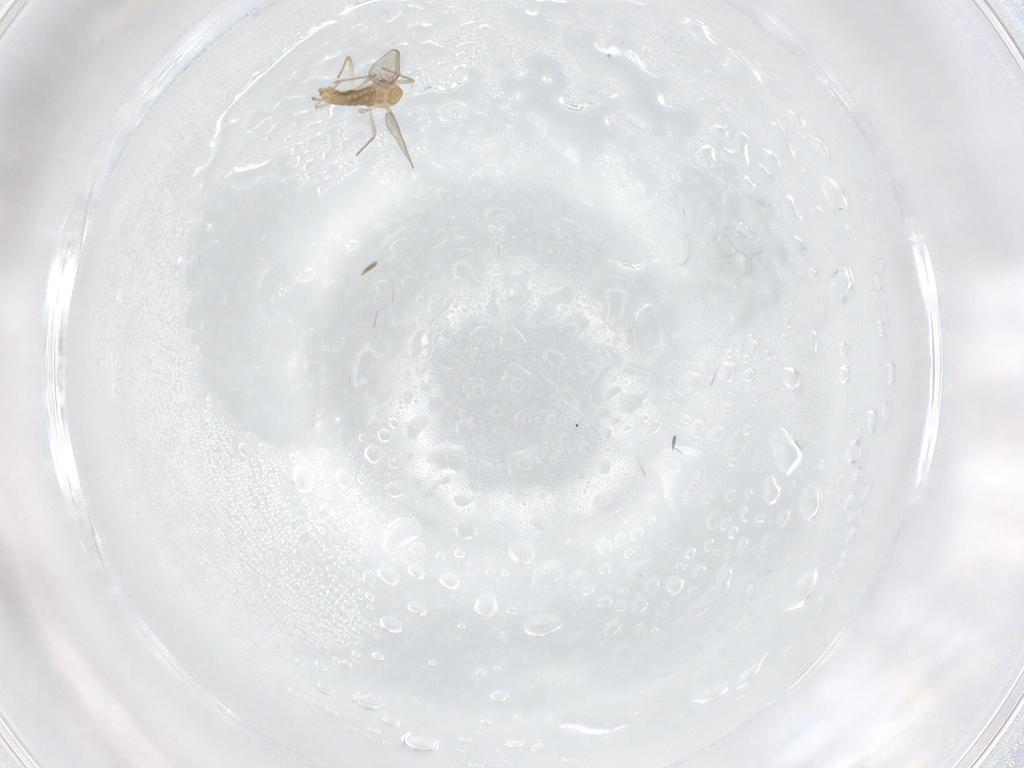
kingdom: Animalia
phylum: Arthropoda
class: Insecta
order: Diptera
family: Chironomidae
